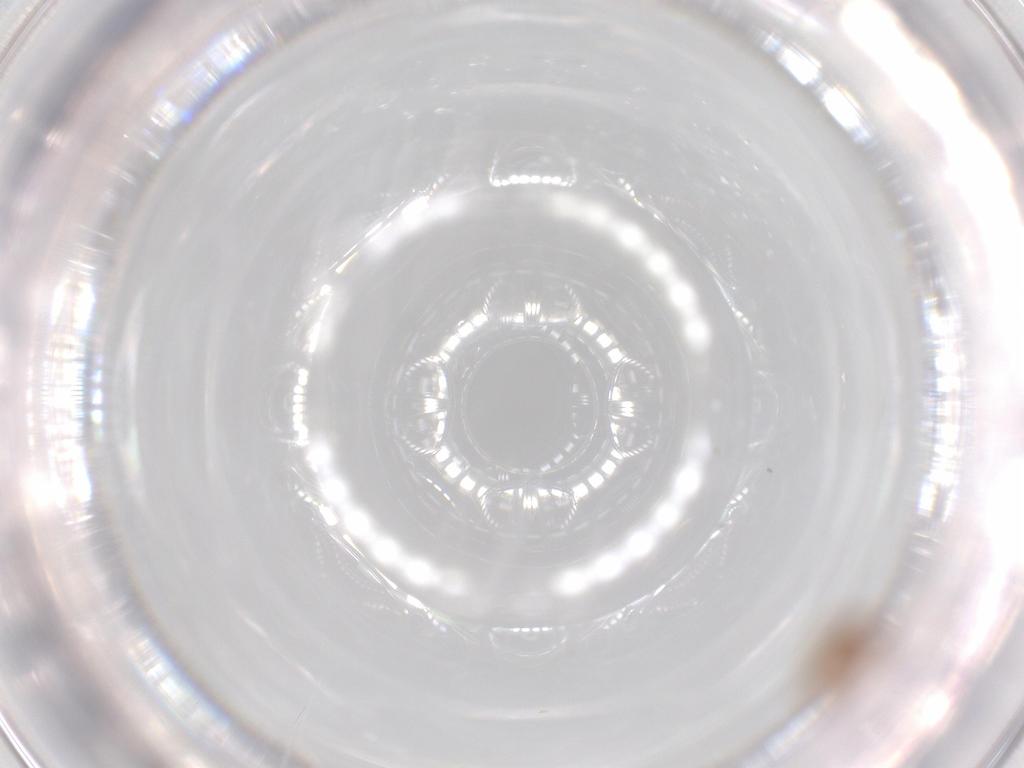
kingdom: Animalia
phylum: Arthropoda
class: Insecta
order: Hymenoptera
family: Scelionidae
